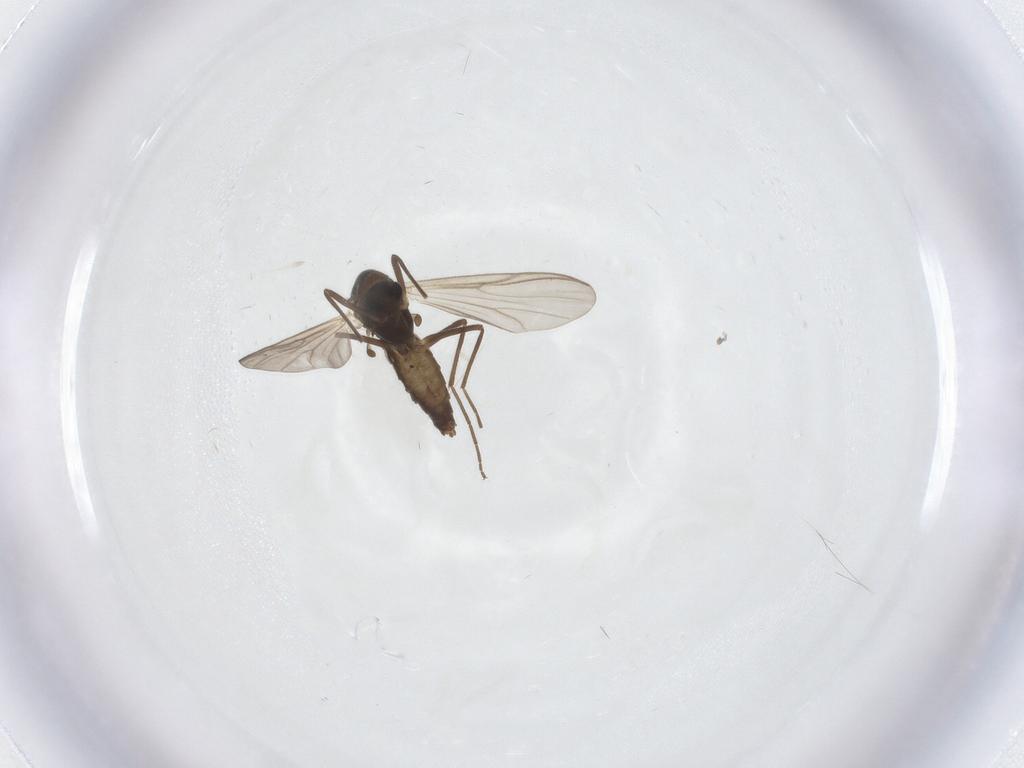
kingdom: Animalia
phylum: Arthropoda
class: Insecta
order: Diptera
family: Chironomidae
